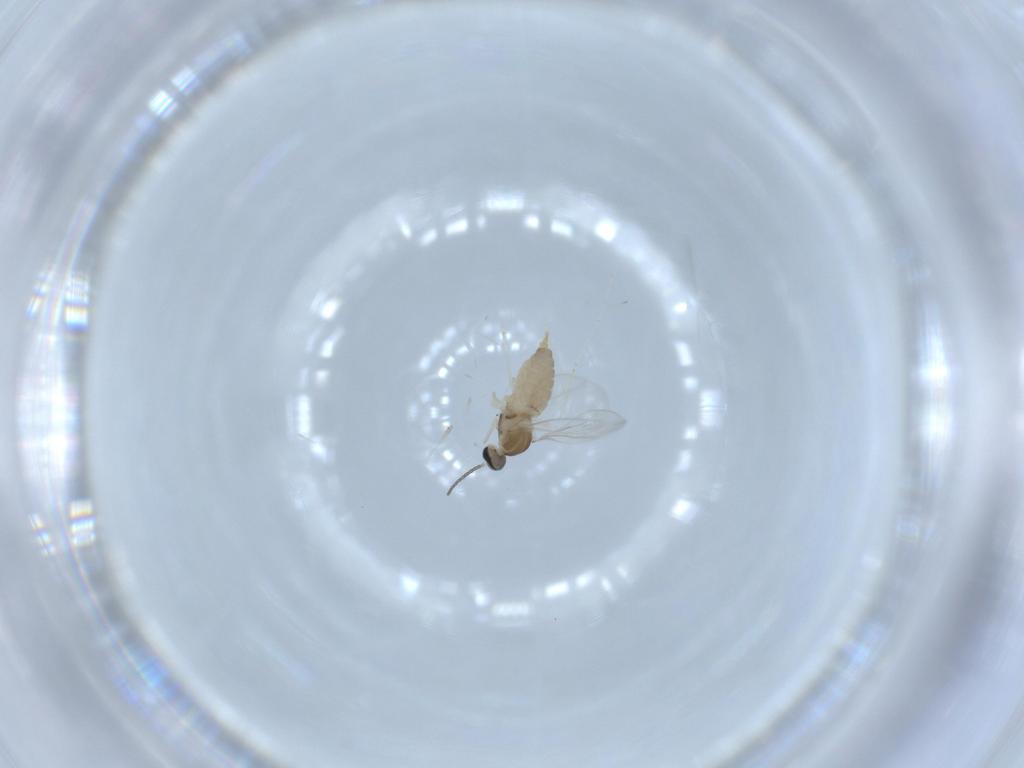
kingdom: Animalia
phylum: Arthropoda
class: Insecta
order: Diptera
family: Cecidomyiidae
